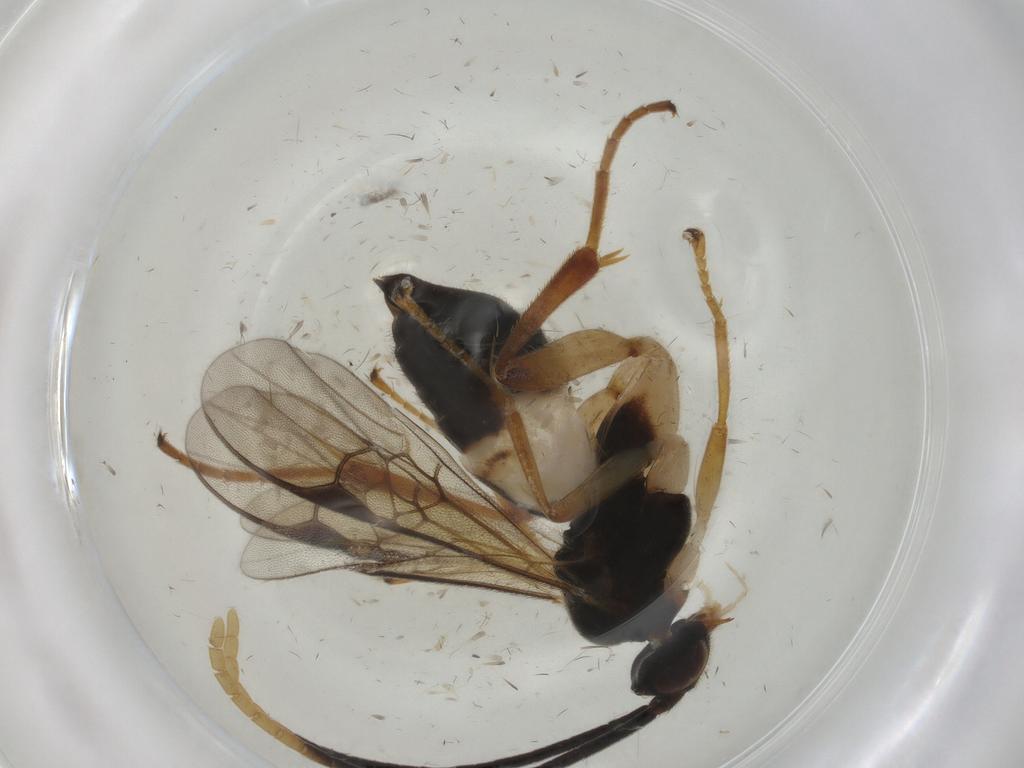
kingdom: Animalia
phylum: Arthropoda
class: Insecta
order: Hymenoptera
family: Braconidae
